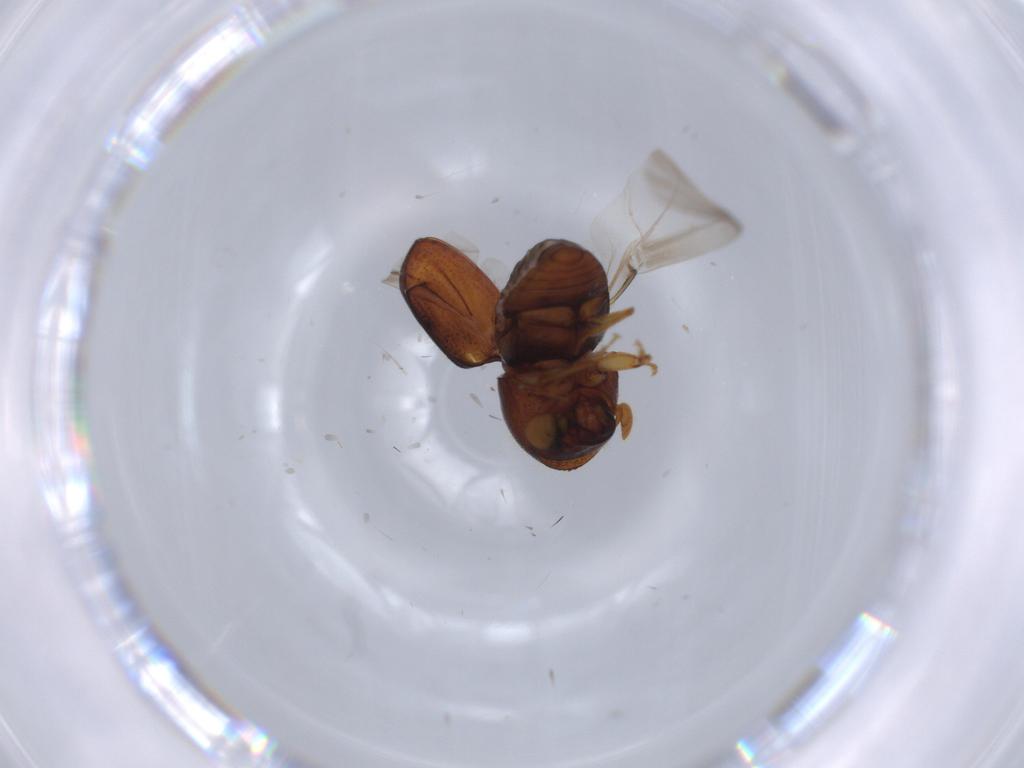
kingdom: Animalia
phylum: Arthropoda
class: Insecta
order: Coleoptera
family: Curculionidae
